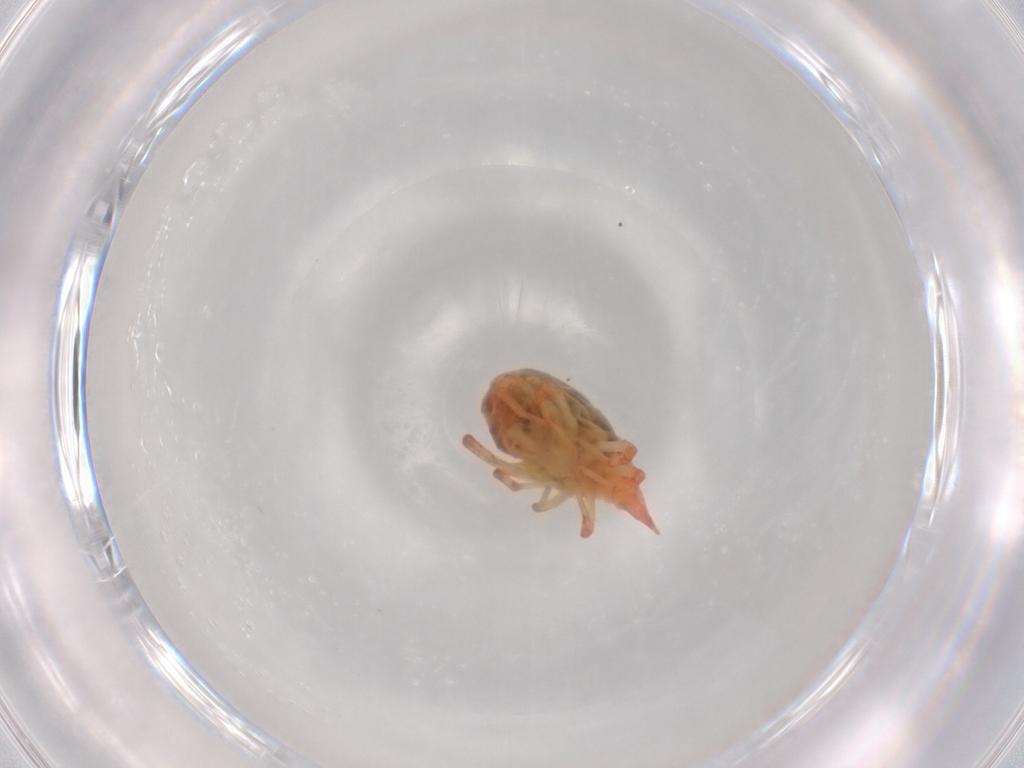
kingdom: Animalia
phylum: Arthropoda
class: Arachnida
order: Trombidiformes
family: Bdellidae
